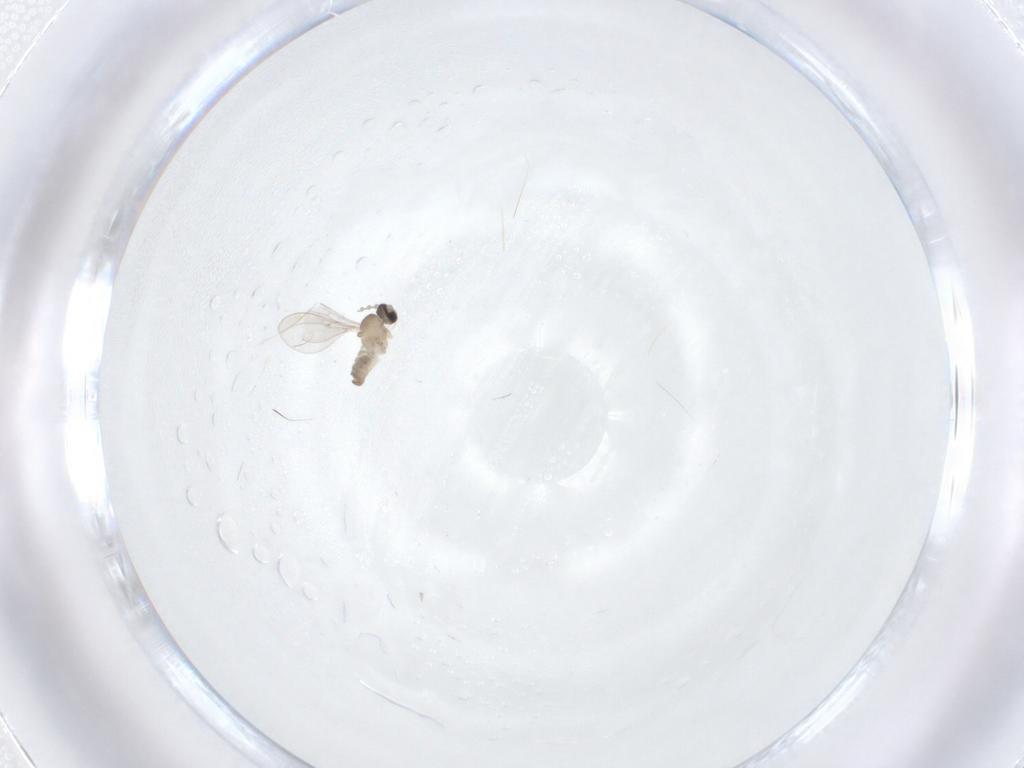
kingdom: Animalia
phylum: Arthropoda
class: Insecta
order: Diptera
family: Cecidomyiidae
